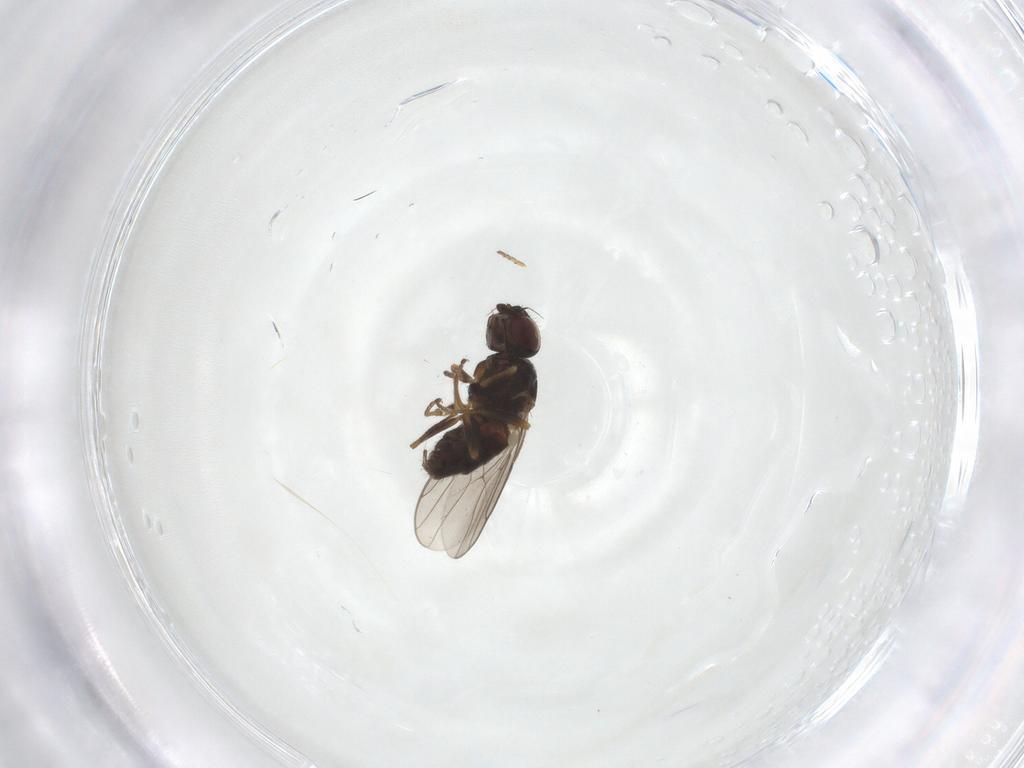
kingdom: Animalia
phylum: Arthropoda
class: Insecta
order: Diptera
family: Chloropidae
